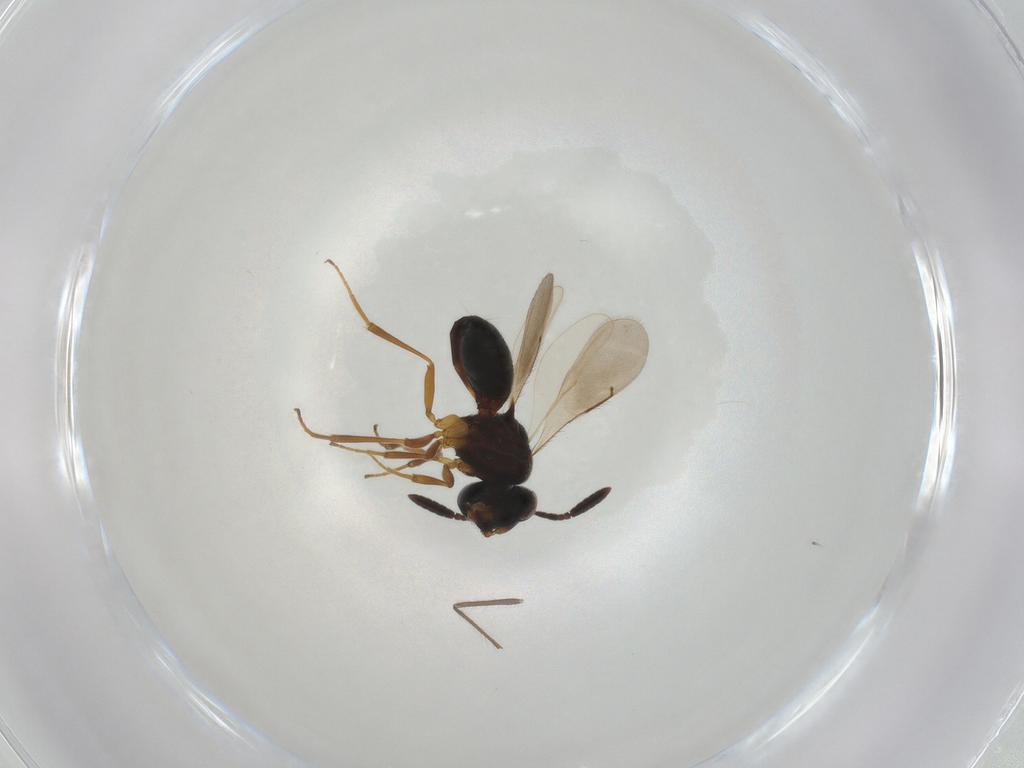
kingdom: Animalia
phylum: Arthropoda
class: Insecta
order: Hymenoptera
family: Scelionidae
